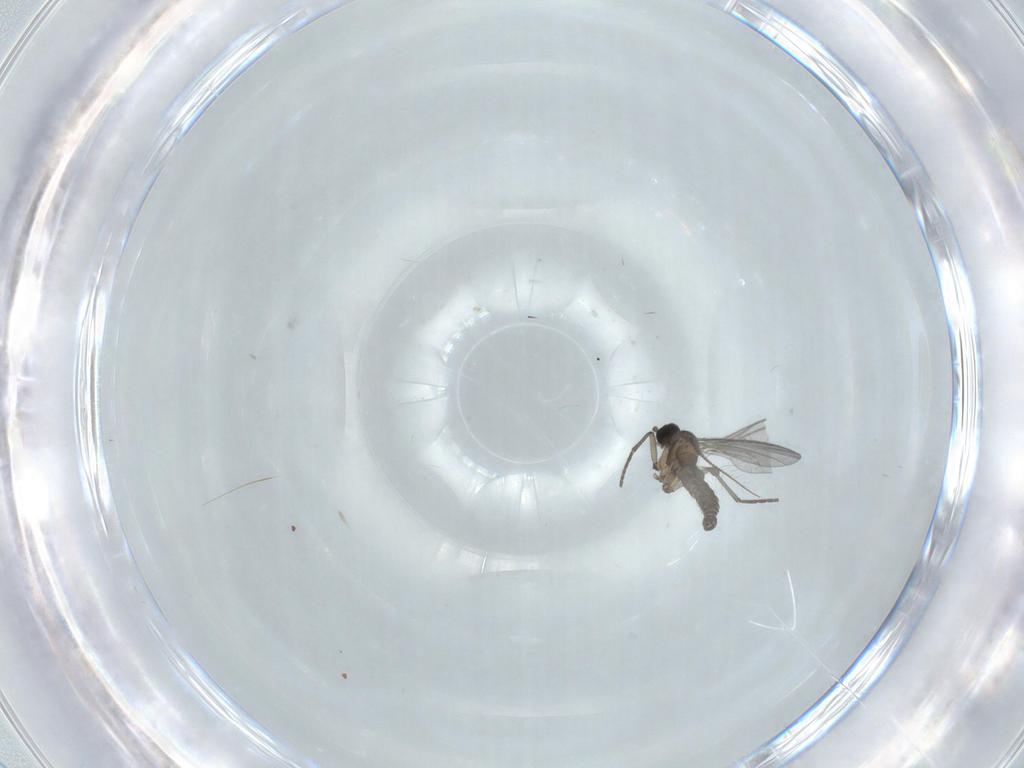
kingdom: Animalia
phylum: Arthropoda
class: Insecta
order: Diptera
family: Chironomidae
